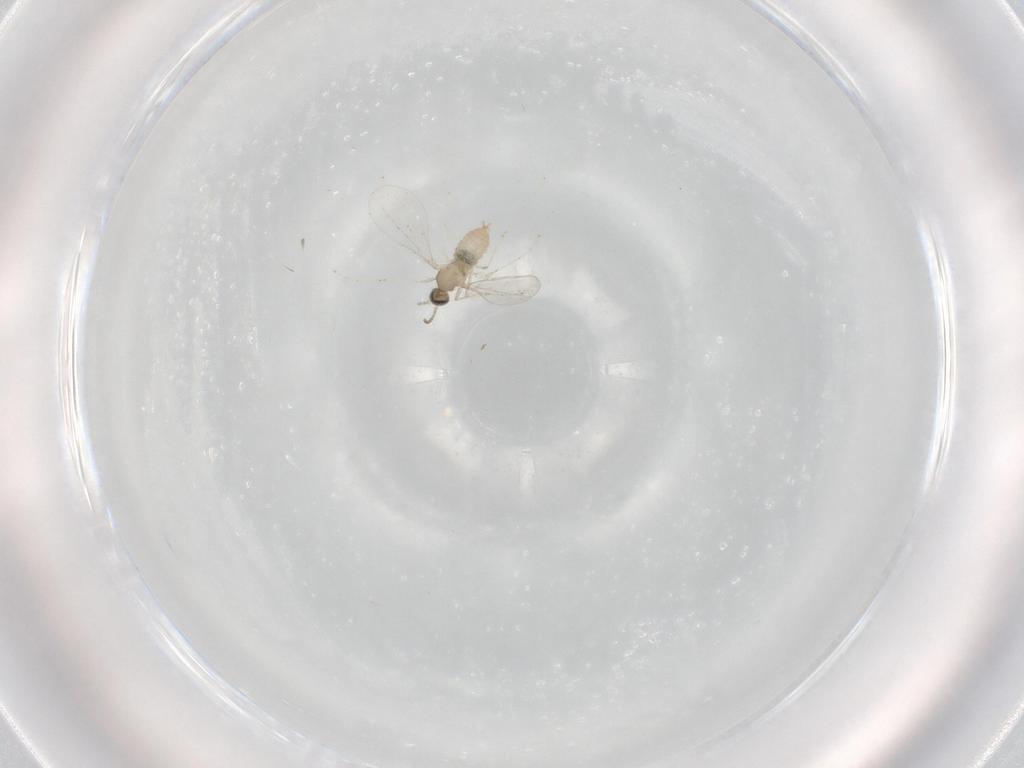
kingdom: Animalia
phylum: Arthropoda
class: Insecta
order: Diptera
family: Cecidomyiidae
